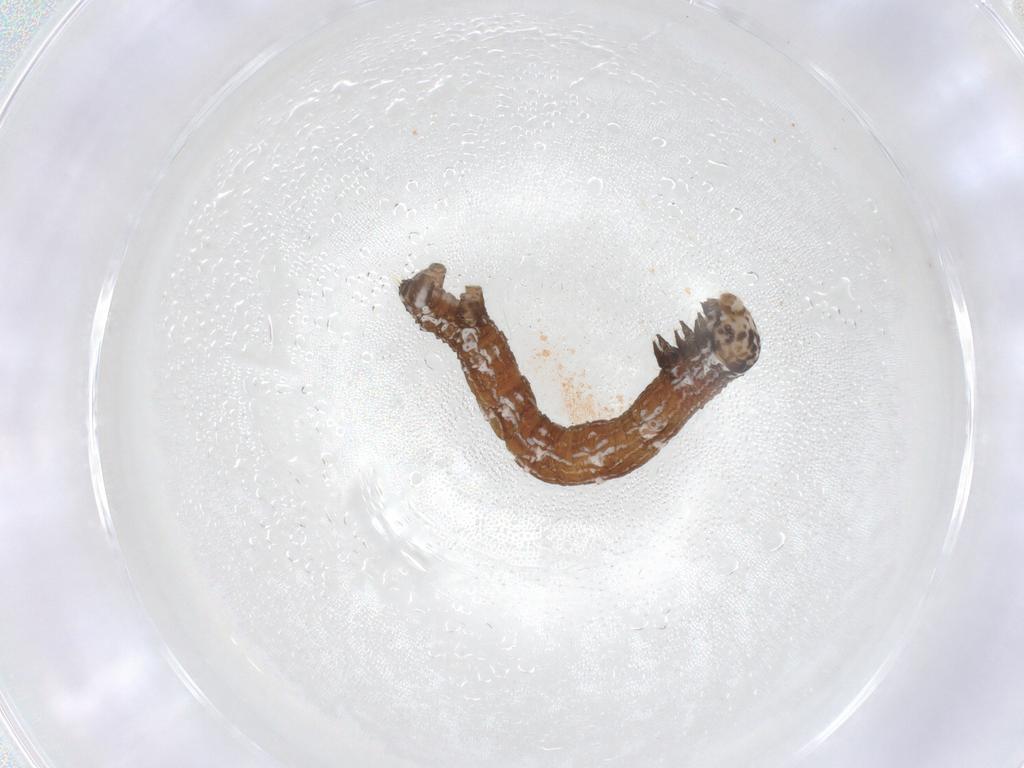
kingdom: Animalia
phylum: Arthropoda
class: Insecta
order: Lepidoptera
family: Geometridae
